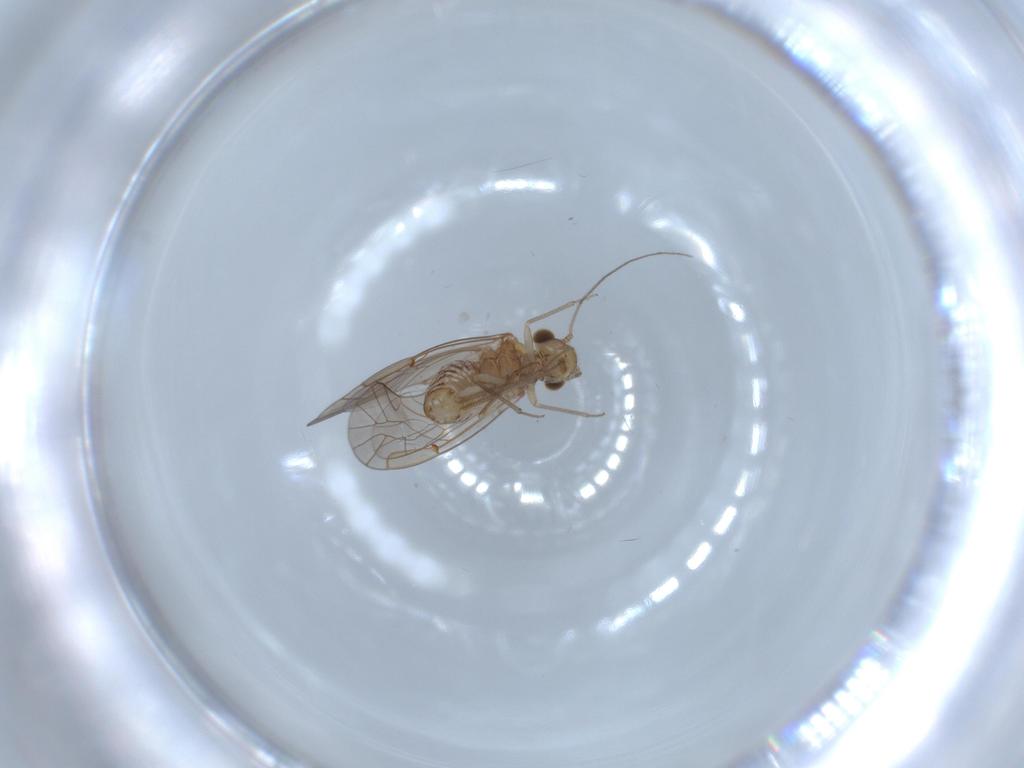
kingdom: Animalia
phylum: Arthropoda
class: Insecta
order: Psocodea
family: Lachesillidae
